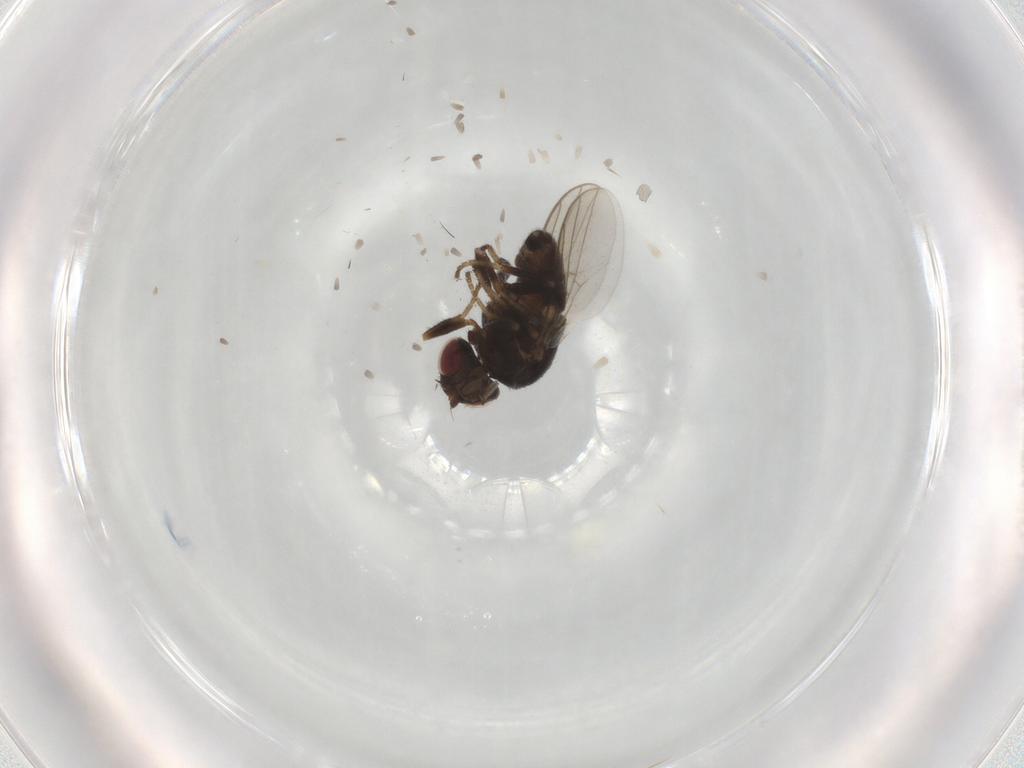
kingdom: Animalia
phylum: Arthropoda
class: Insecta
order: Diptera
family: Chloropidae
